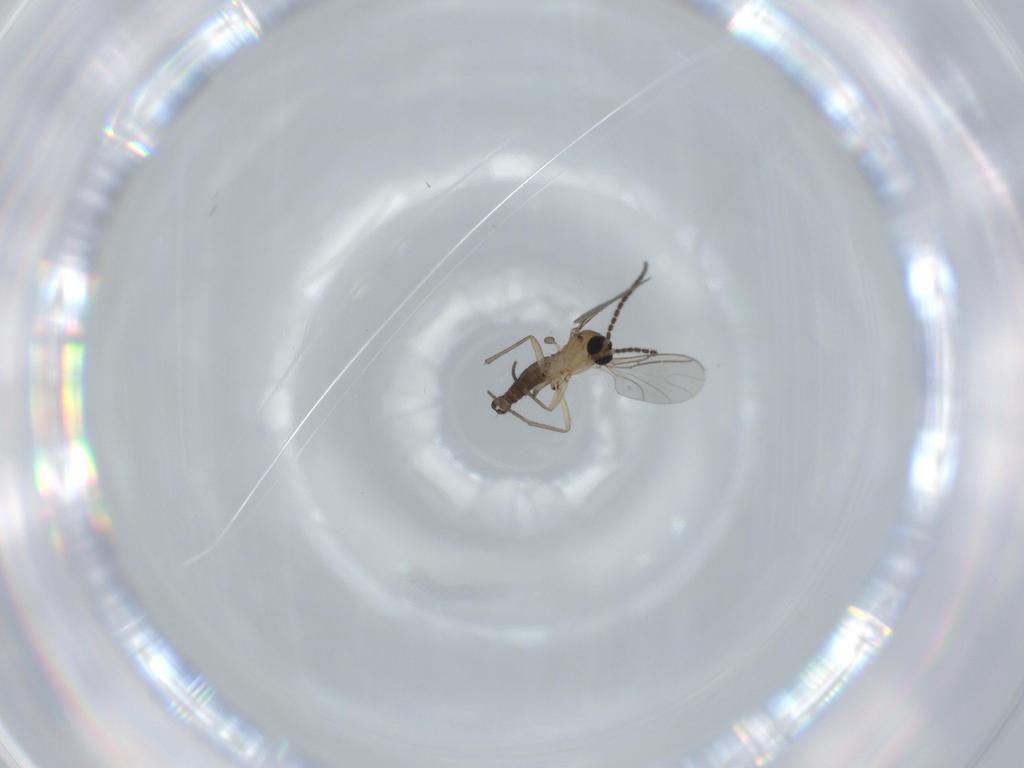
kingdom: Animalia
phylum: Arthropoda
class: Insecta
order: Diptera
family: Sciaridae
